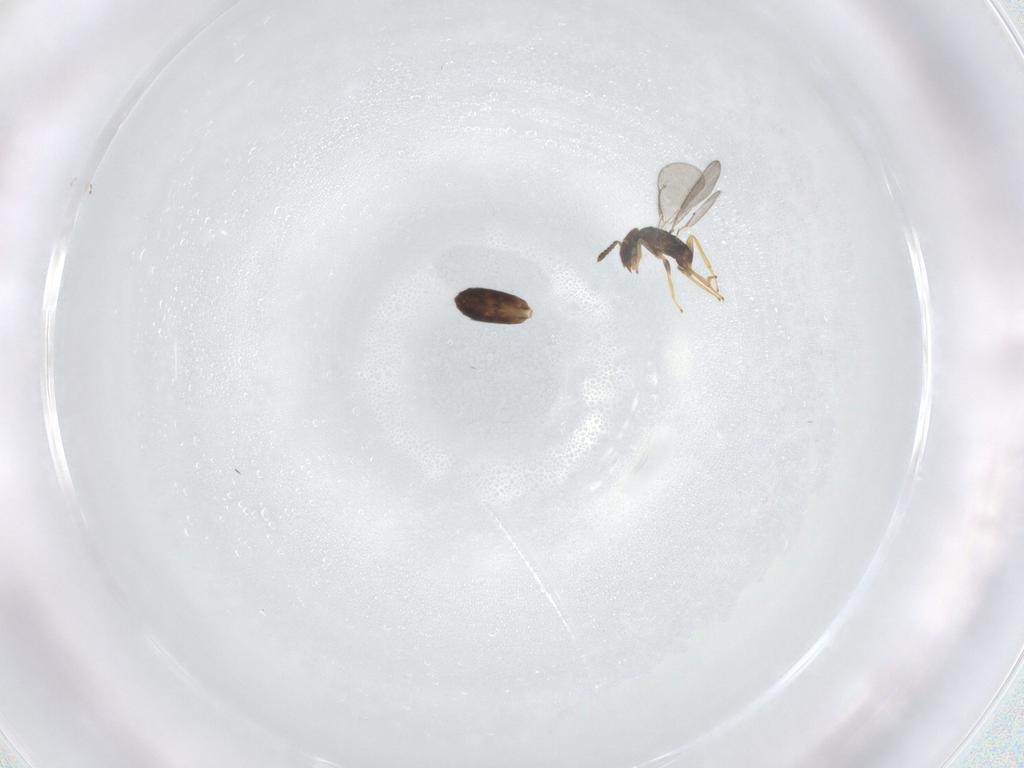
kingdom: Animalia
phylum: Arthropoda
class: Insecta
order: Hymenoptera
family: Eulophidae
